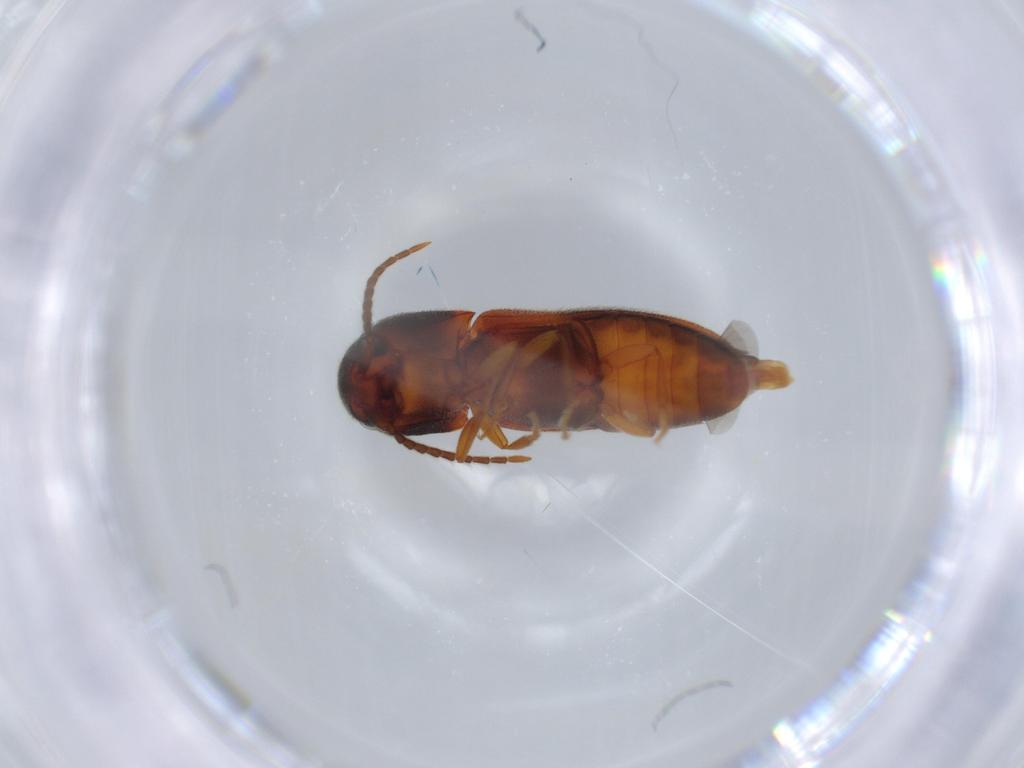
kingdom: Animalia
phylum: Arthropoda
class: Insecta
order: Coleoptera
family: Eucnemidae
